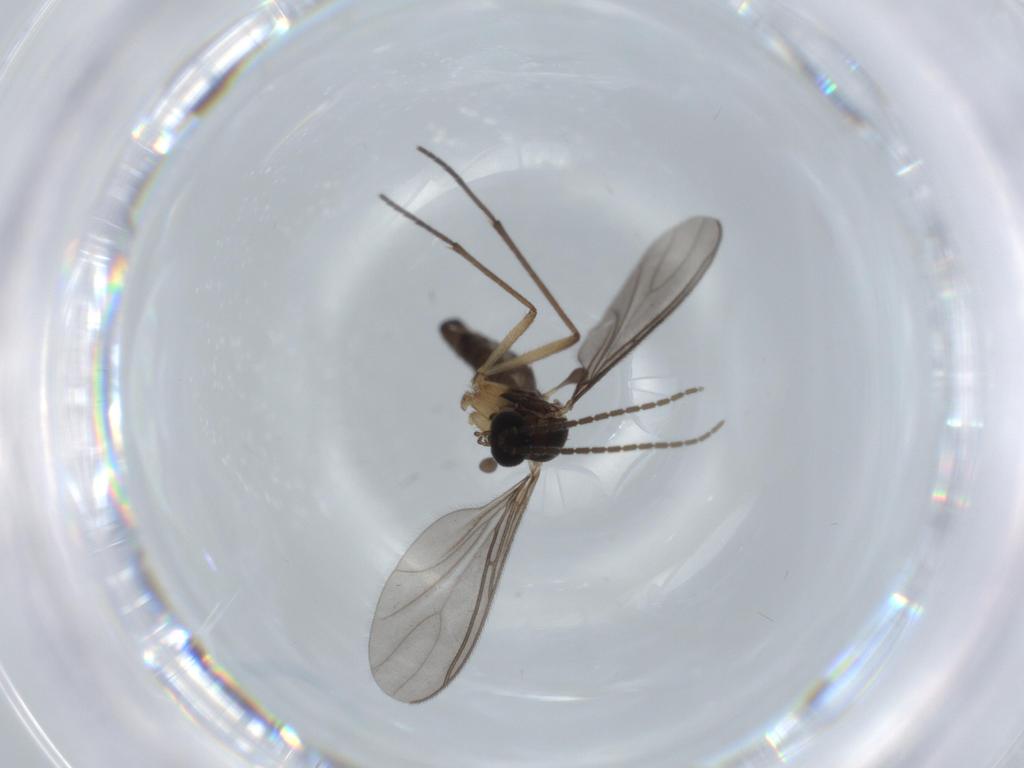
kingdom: Animalia
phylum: Arthropoda
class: Insecta
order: Diptera
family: Sciaridae
